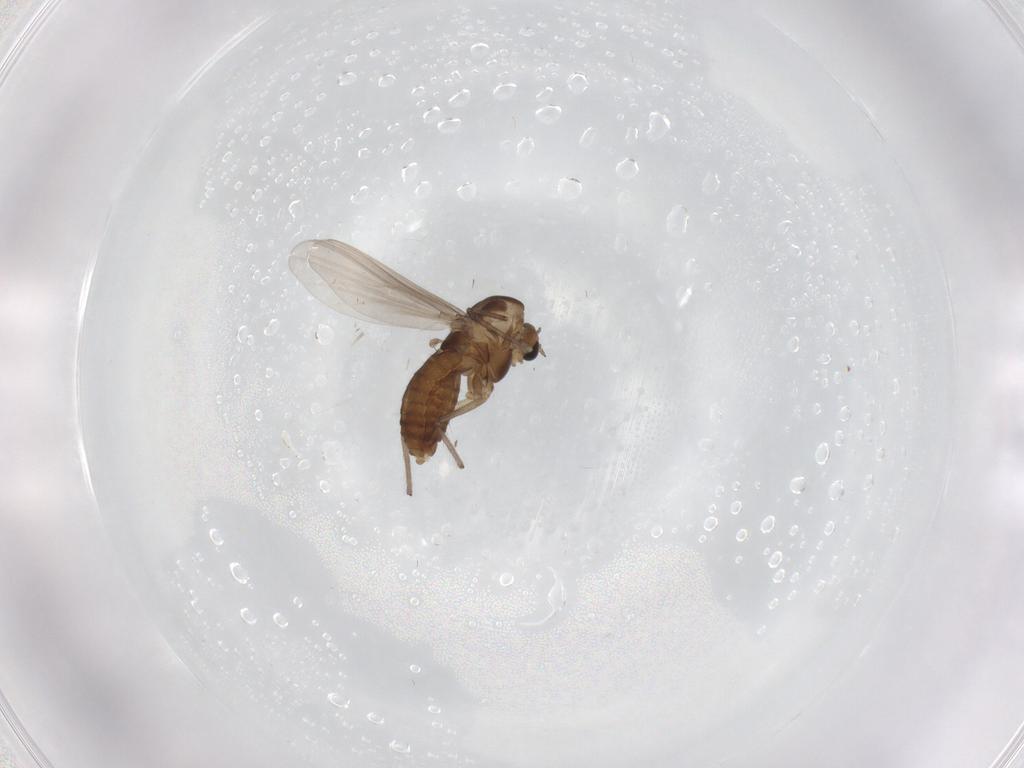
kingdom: Animalia
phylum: Arthropoda
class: Insecta
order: Diptera
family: Chironomidae
